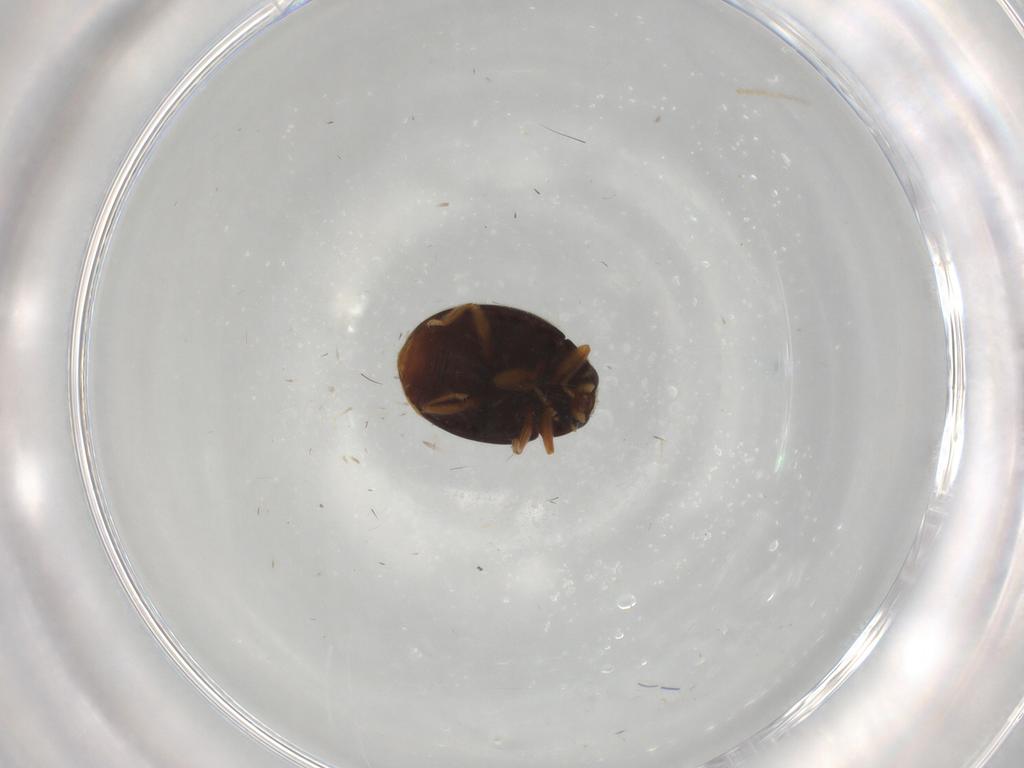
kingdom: Animalia
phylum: Arthropoda
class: Insecta
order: Coleoptera
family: Coccinellidae
